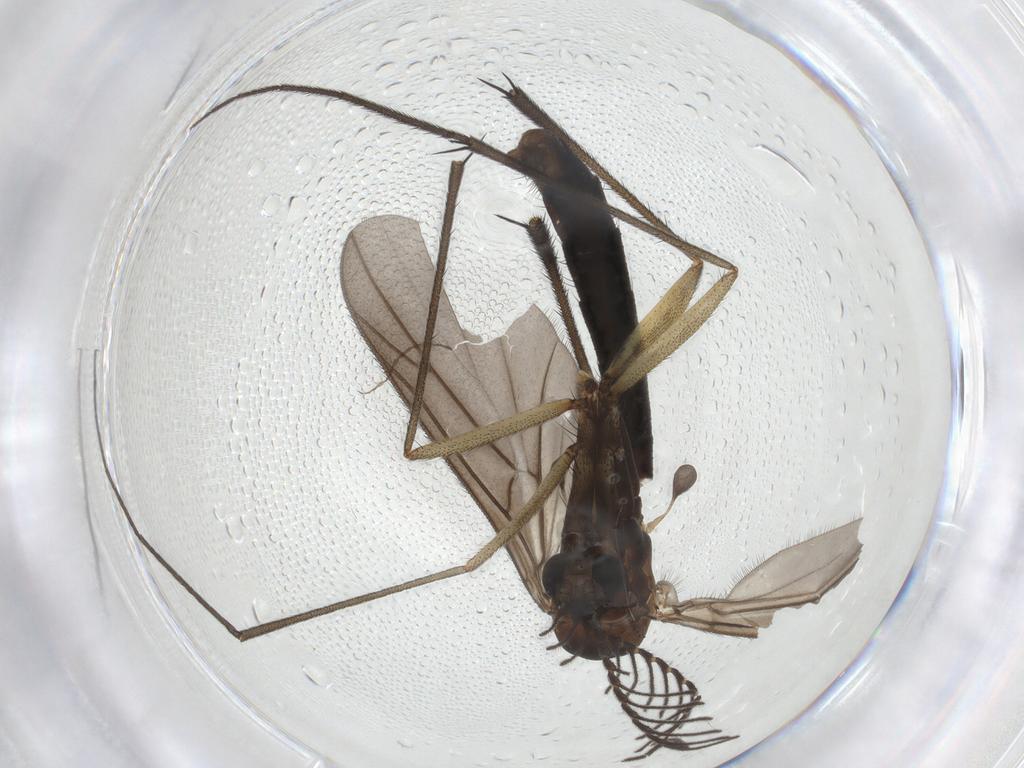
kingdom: Animalia
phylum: Arthropoda
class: Insecta
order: Diptera
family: Ditomyiidae
